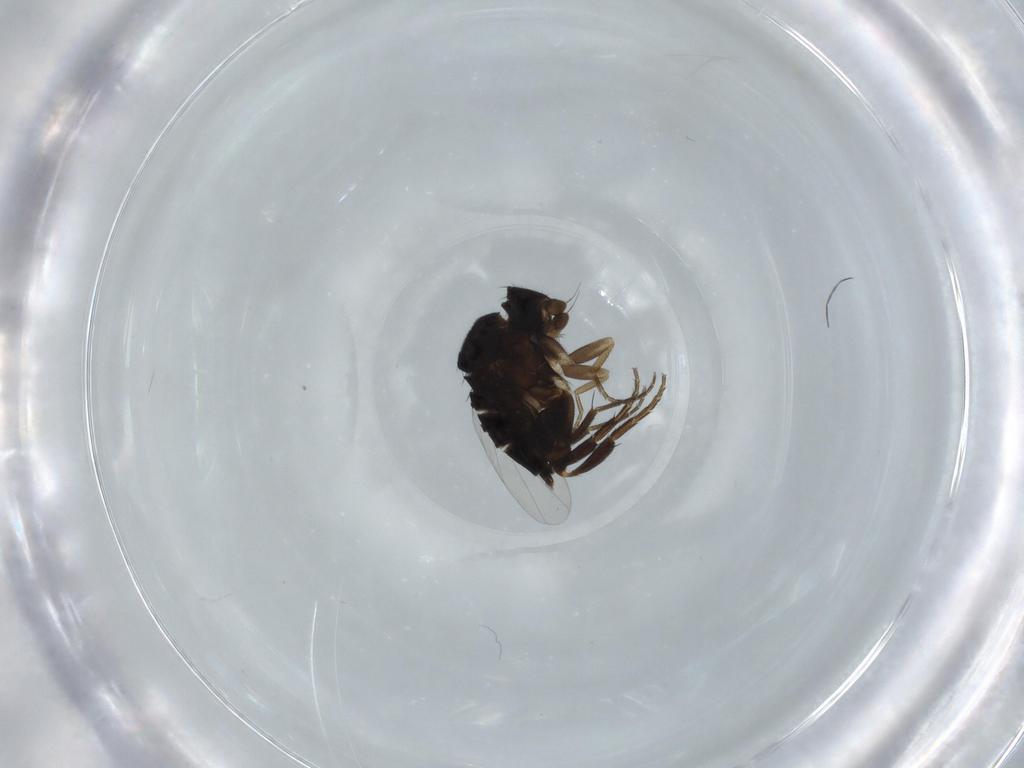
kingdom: Animalia
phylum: Arthropoda
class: Insecta
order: Diptera
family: Phoridae
